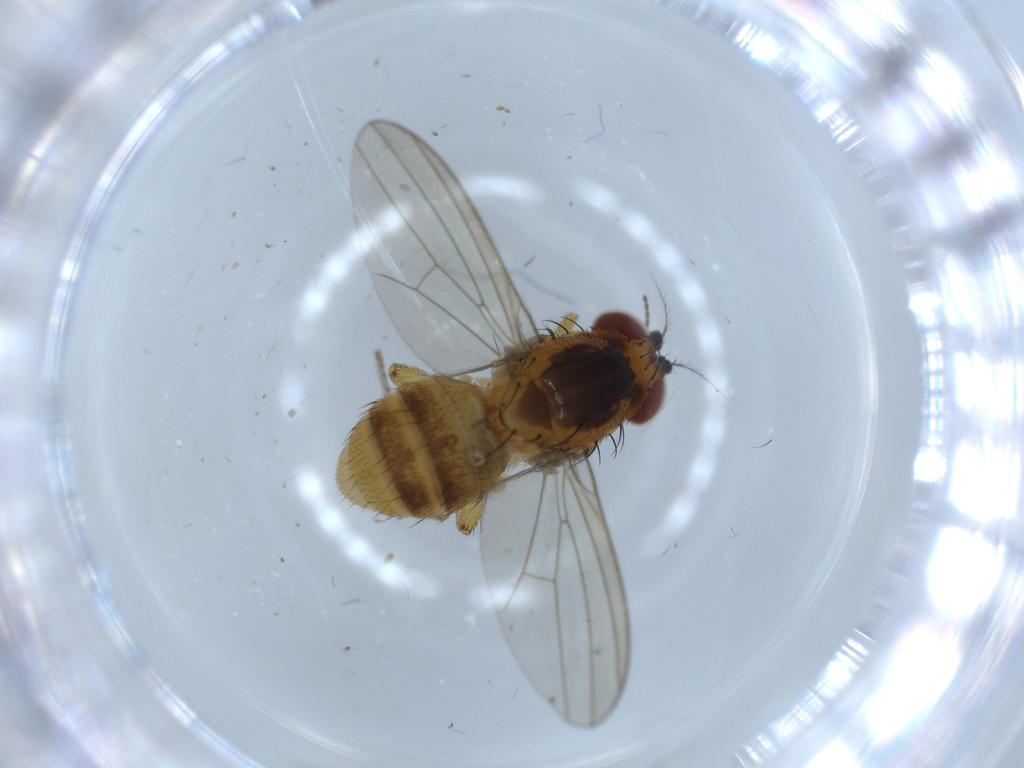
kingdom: Animalia
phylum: Arthropoda
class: Insecta
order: Diptera
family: Lauxaniidae
